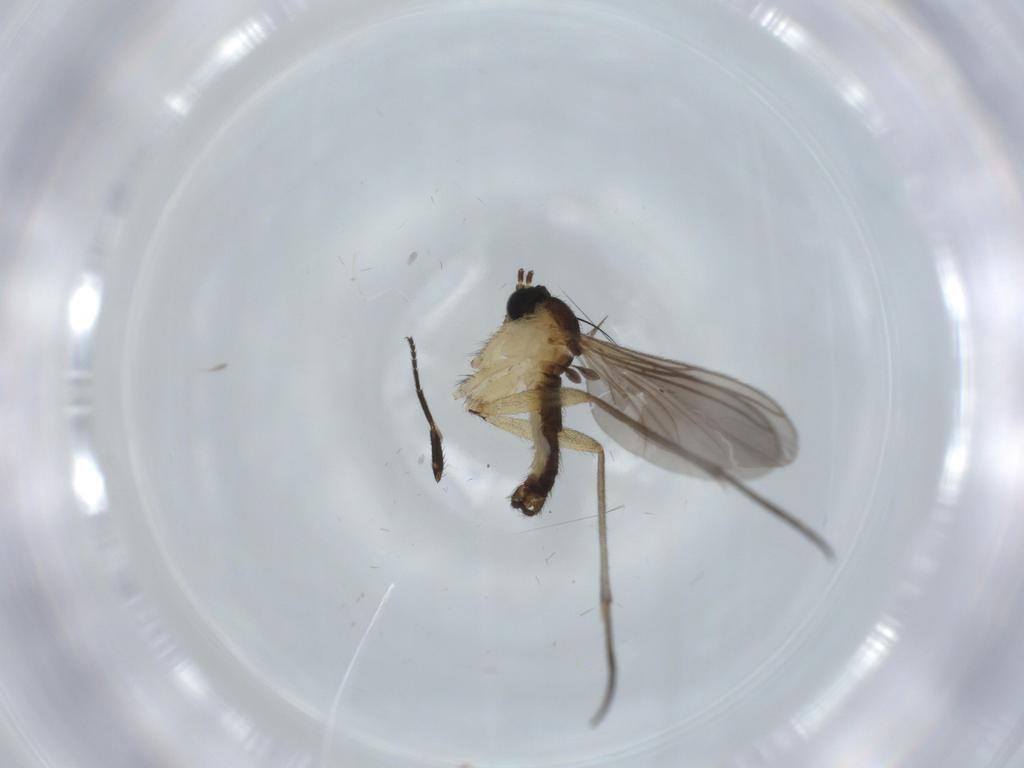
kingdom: Animalia
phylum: Arthropoda
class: Insecta
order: Diptera
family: Sciaridae
